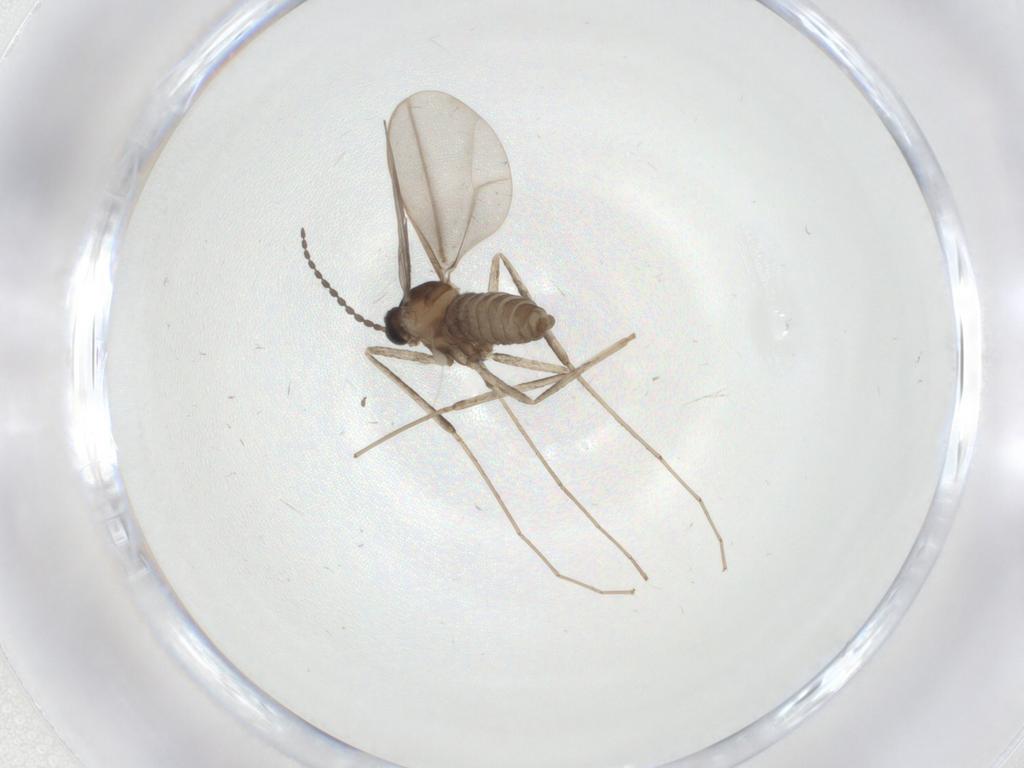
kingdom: Animalia
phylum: Arthropoda
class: Insecta
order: Diptera
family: Cecidomyiidae
